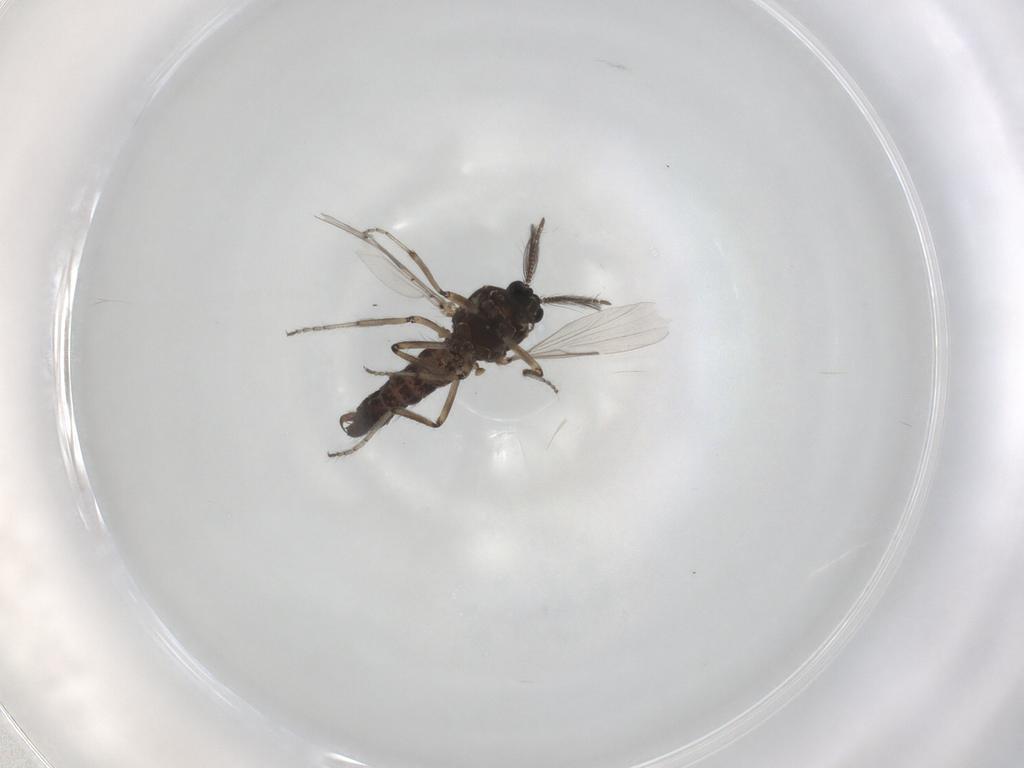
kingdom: Animalia
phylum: Arthropoda
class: Insecta
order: Diptera
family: Ceratopogonidae
